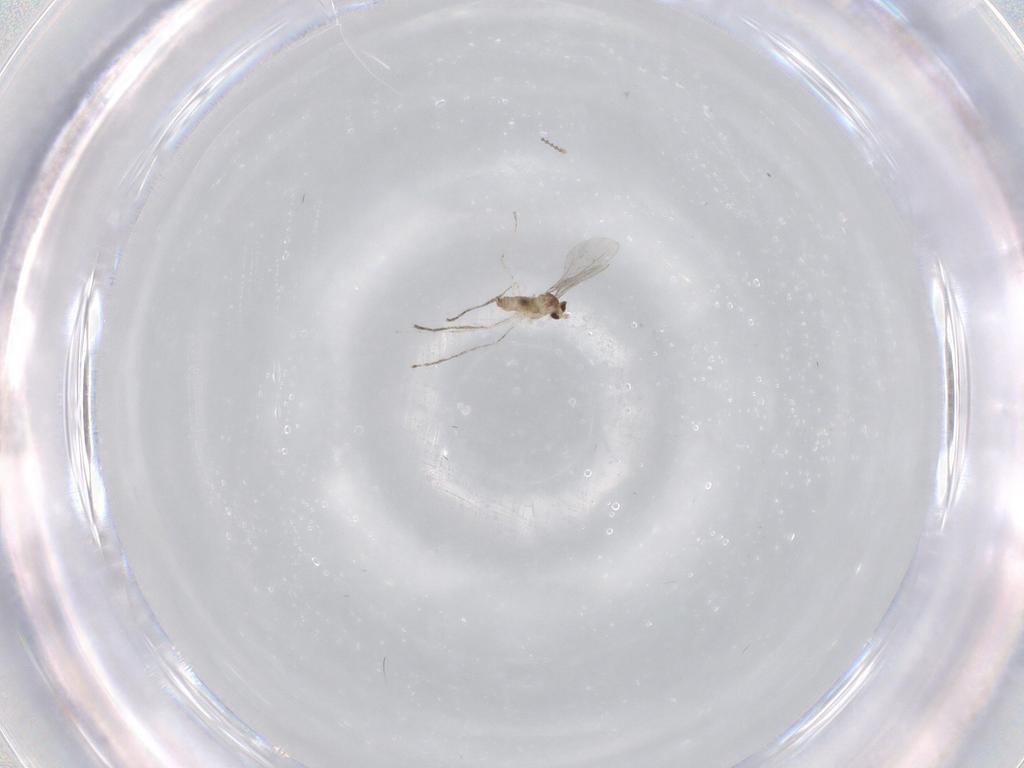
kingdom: Animalia
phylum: Arthropoda
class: Insecta
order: Diptera
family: Cecidomyiidae
